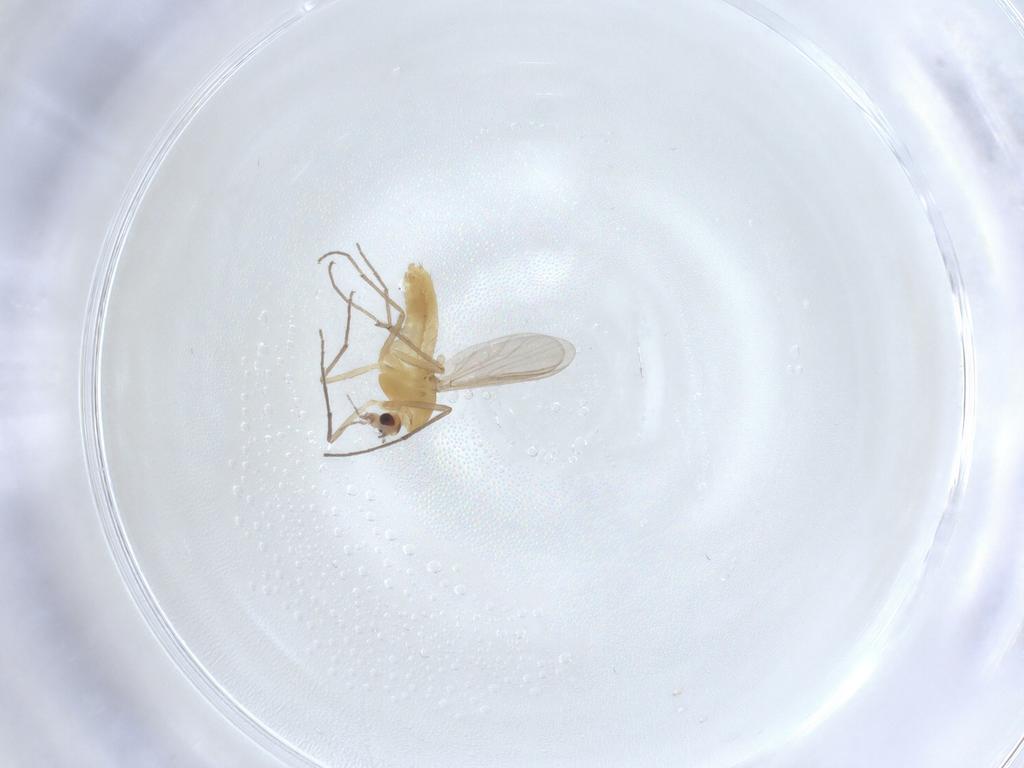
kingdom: Animalia
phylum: Arthropoda
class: Insecta
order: Diptera
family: Chironomidae
